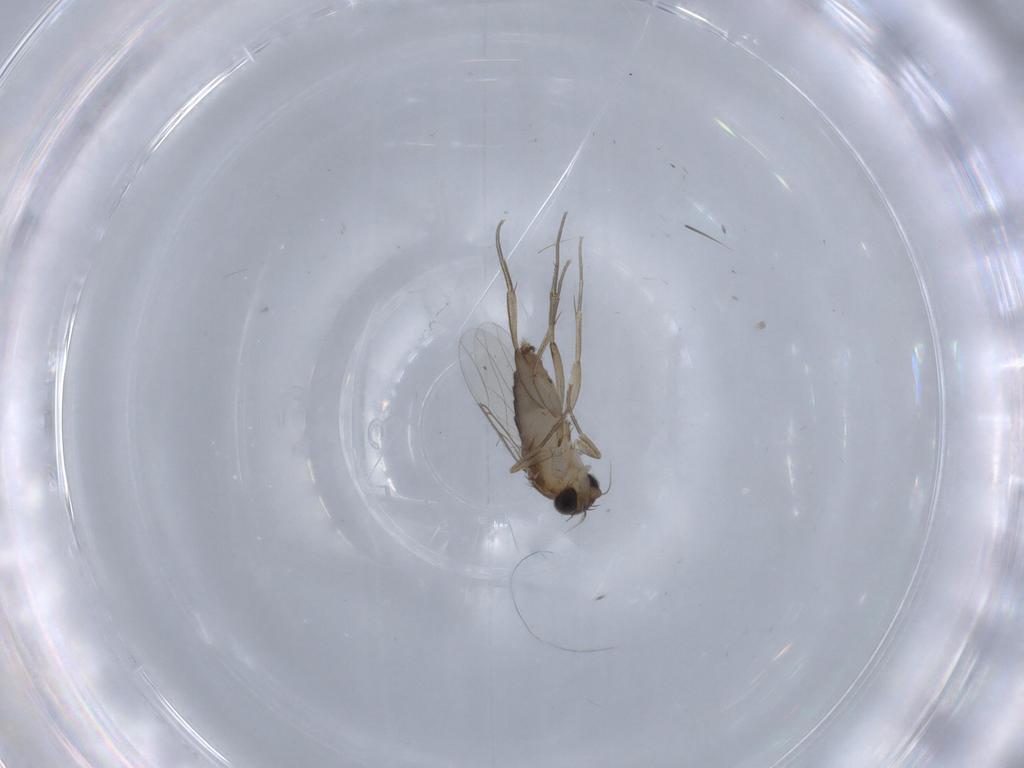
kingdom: Animalia
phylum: Arthropoda
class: Insecta
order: Diptera
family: Phoridae
